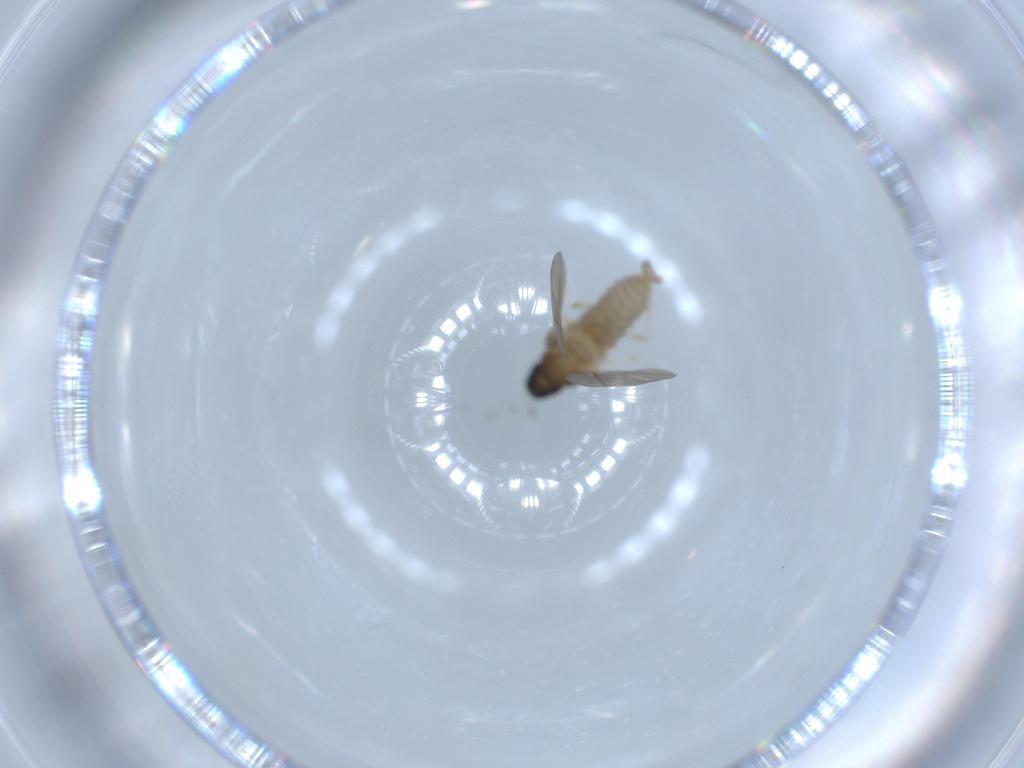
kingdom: Animalia
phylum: Arthropoda
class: Insecta
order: Diptera
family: Cecidomyiidae
